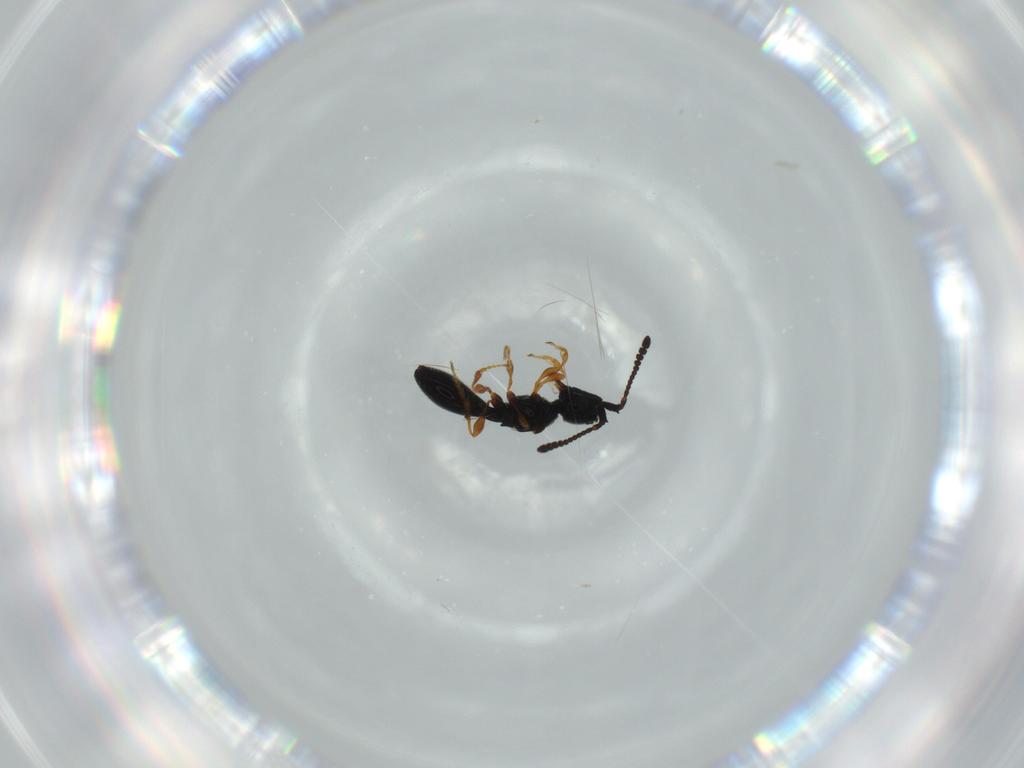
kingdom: Animalia
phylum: Arthropoda
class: Insecta
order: Hymenoptera
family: Diapriidae
